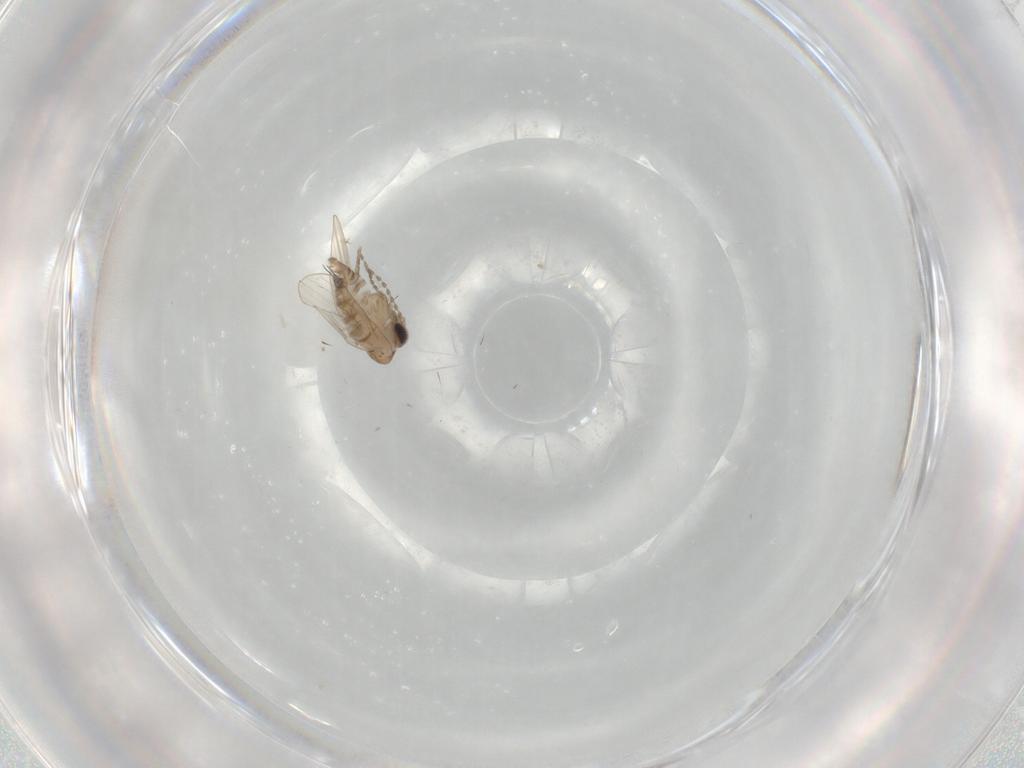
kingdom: Animalia
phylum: Arthropoda
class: Insecta
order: Diptera
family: Psychodidae
